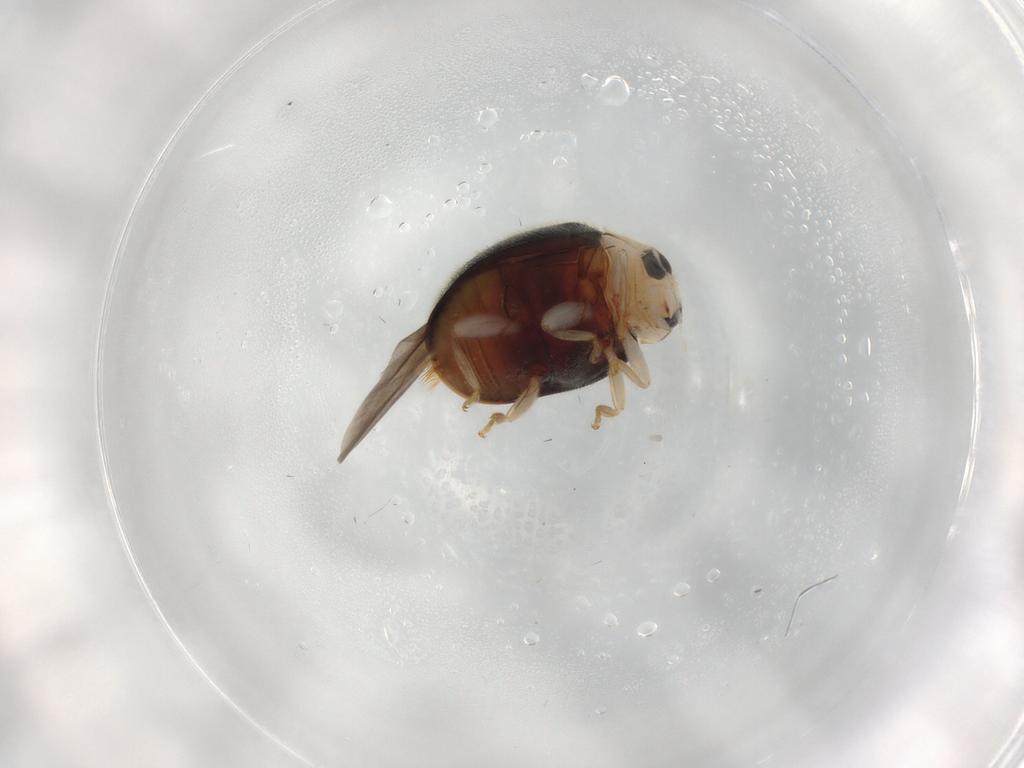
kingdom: Animalia
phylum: Arthropoda
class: Insecta
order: Coleoptera
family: Coccinellidae
